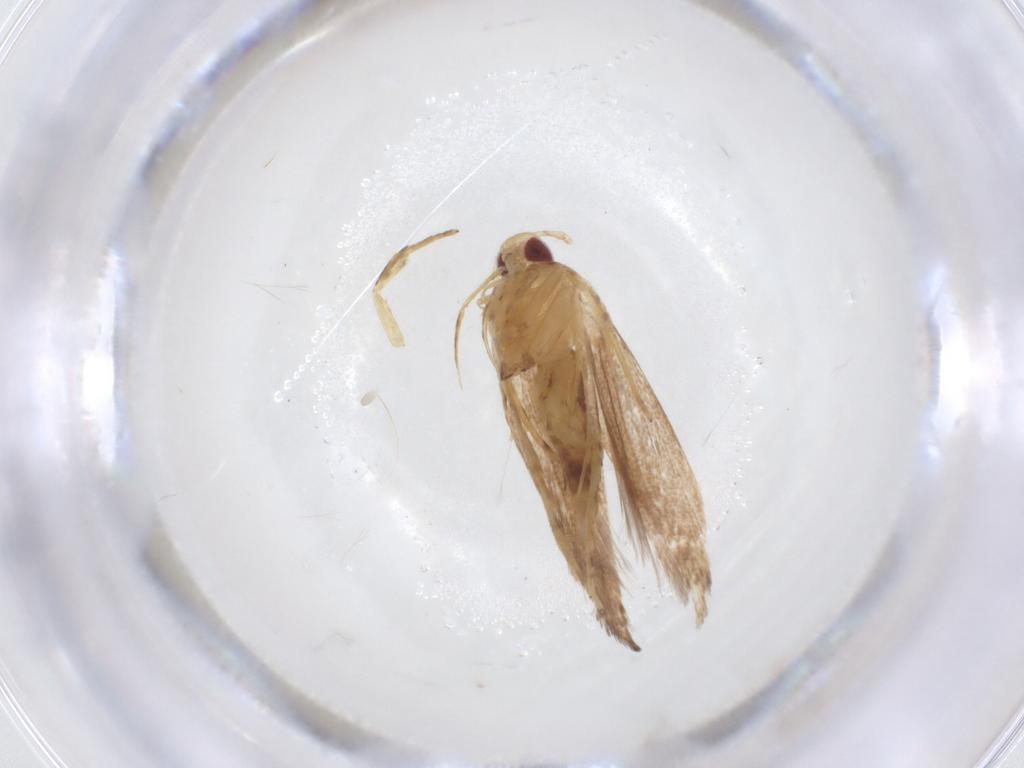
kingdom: Animalia
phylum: Arthropoda
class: Insecta
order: Lepidoptera
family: Cosmopterigidae
